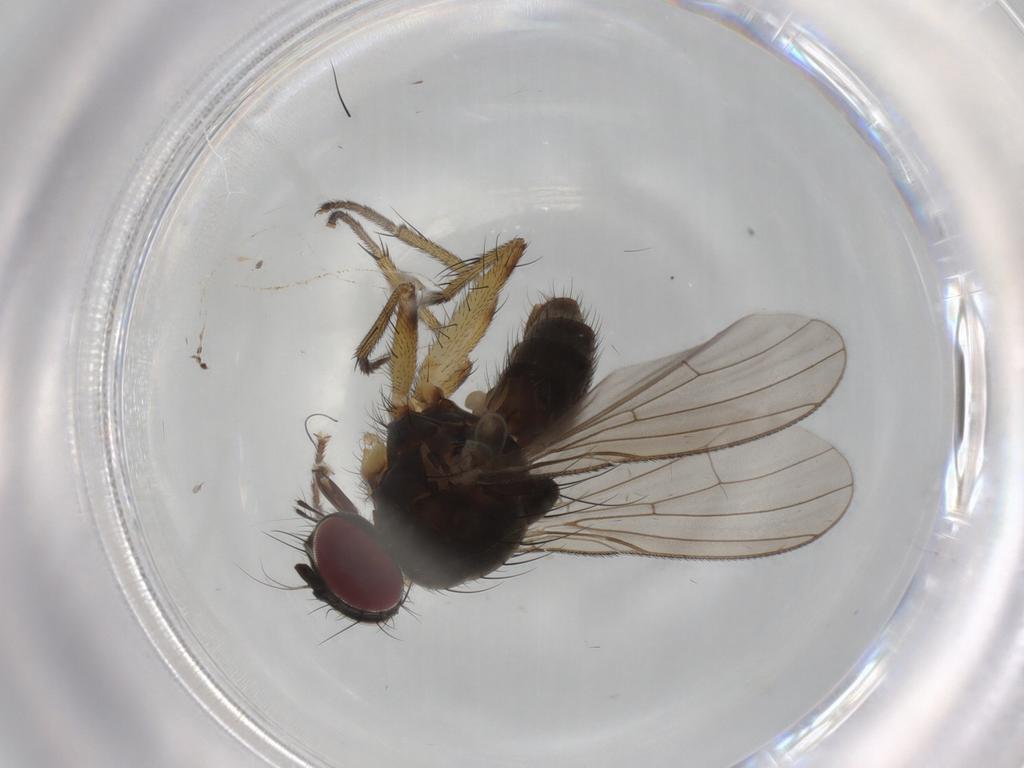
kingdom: Animalia
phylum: Arthropoda
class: Insecta
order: Diptera
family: Muscidae
